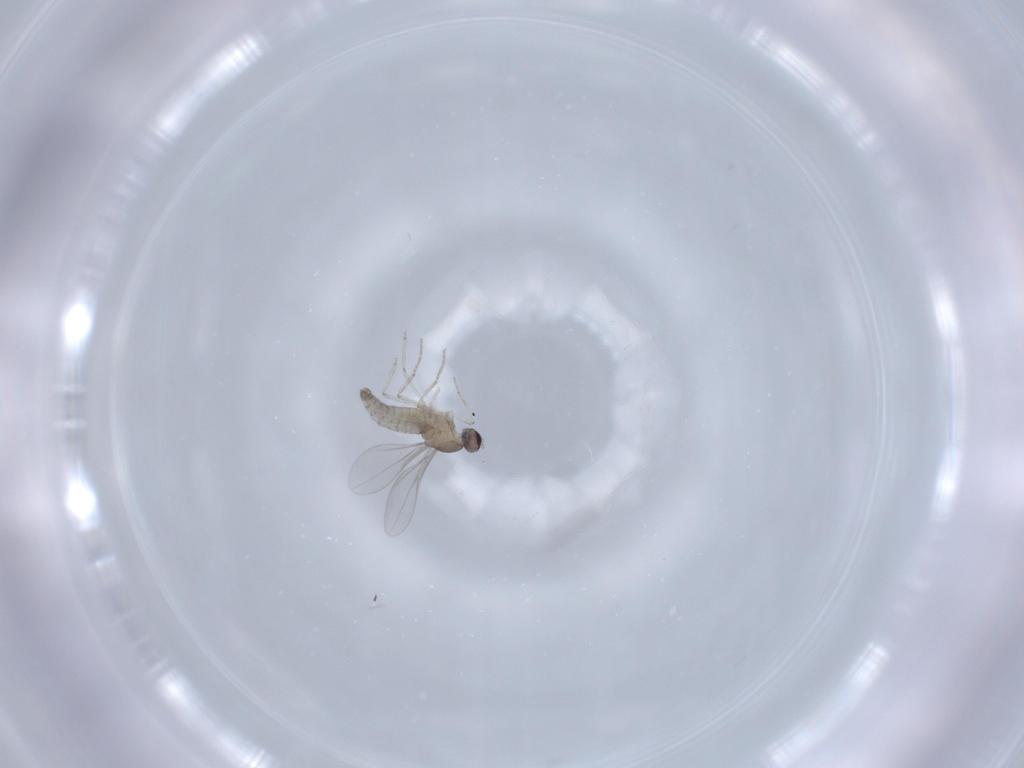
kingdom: Animalia
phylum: Arthropoda
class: Insecta
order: Diptera
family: Cecidomyiidae
